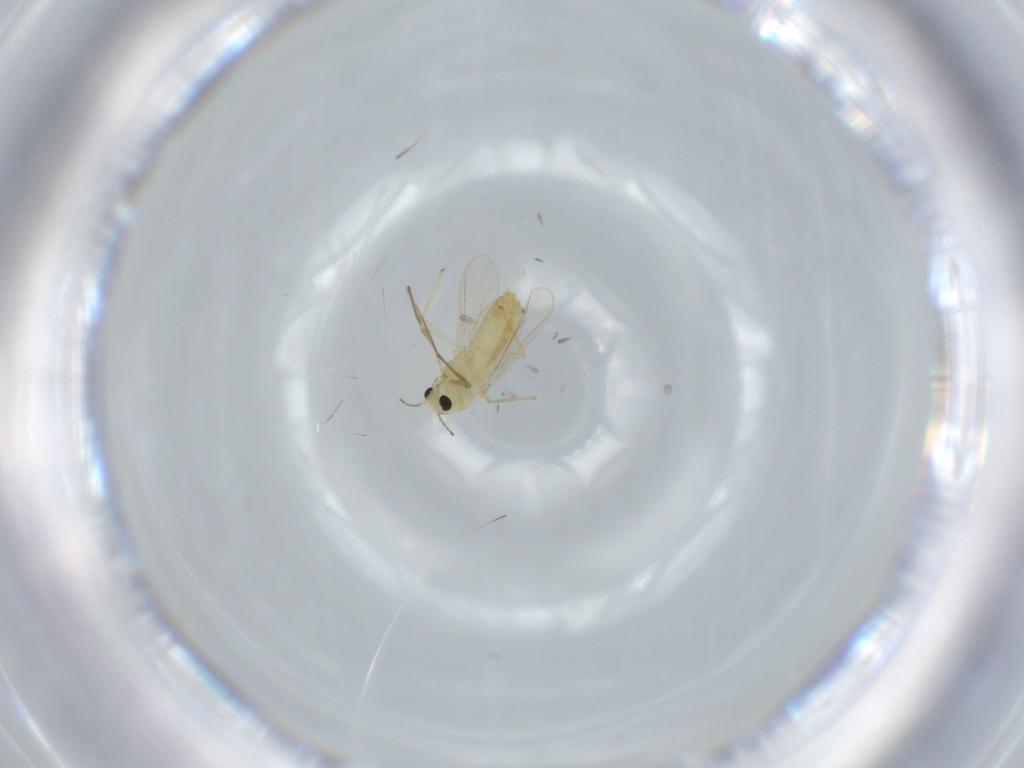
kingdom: Animalia
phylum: Arthropoda
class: Insecta
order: Diptera
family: Chironomidae
